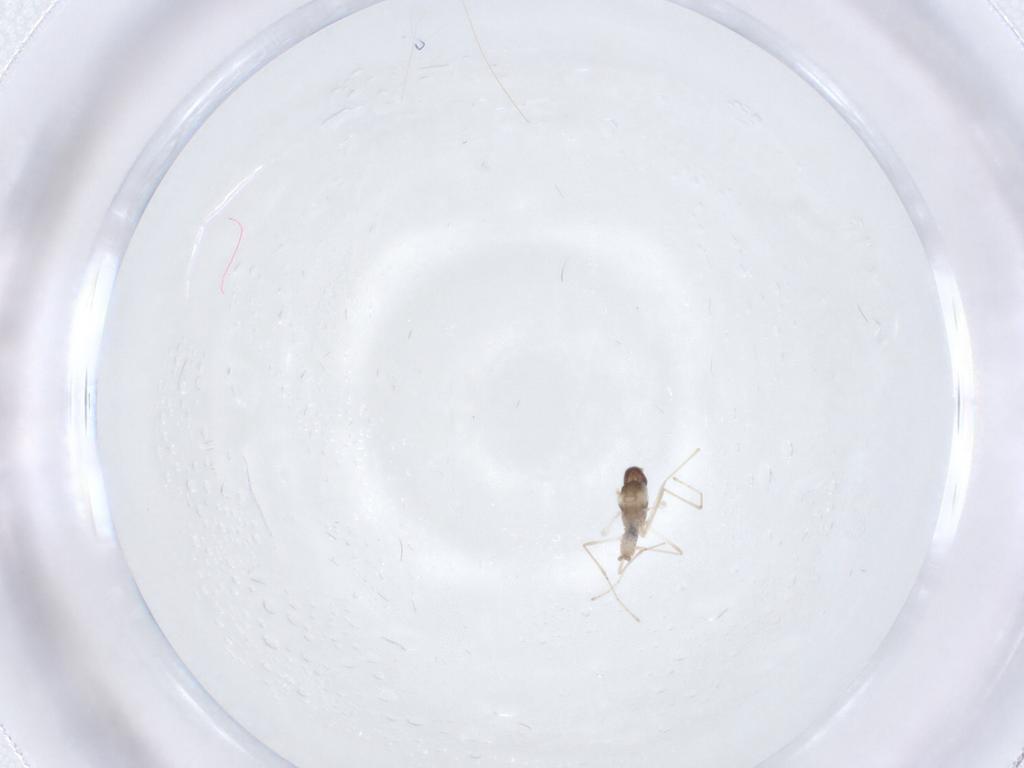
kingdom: Animalia
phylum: Arthropoda
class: Insecta
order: Diptera
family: Cecidomyiidae
